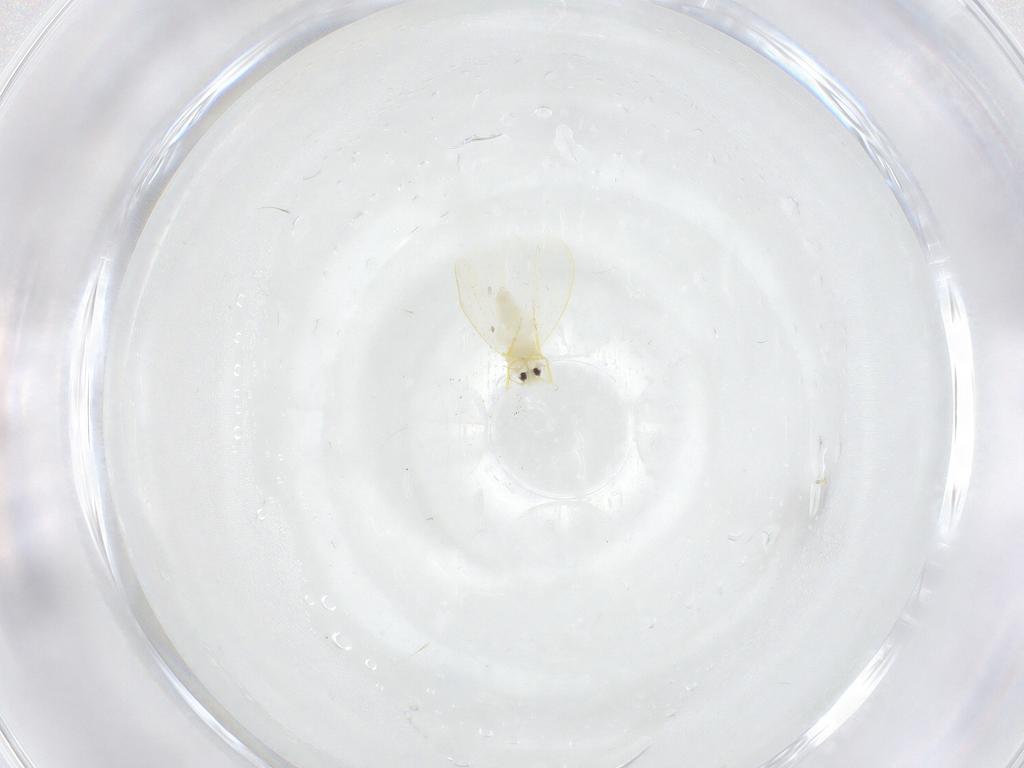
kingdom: Animalia
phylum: Arthropoda
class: Insecta
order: Hemiptera
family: Aleyrodidae
